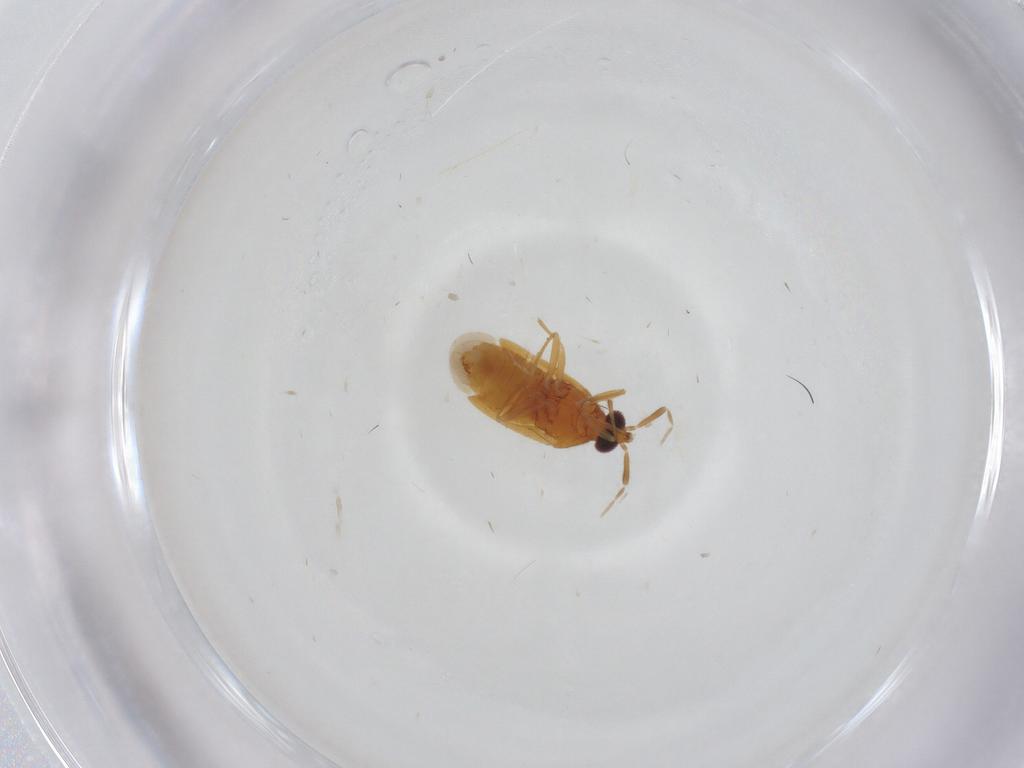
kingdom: Animalia
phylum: Arthropoda
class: Insecta
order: Hemiptera
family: Anthocoridae
